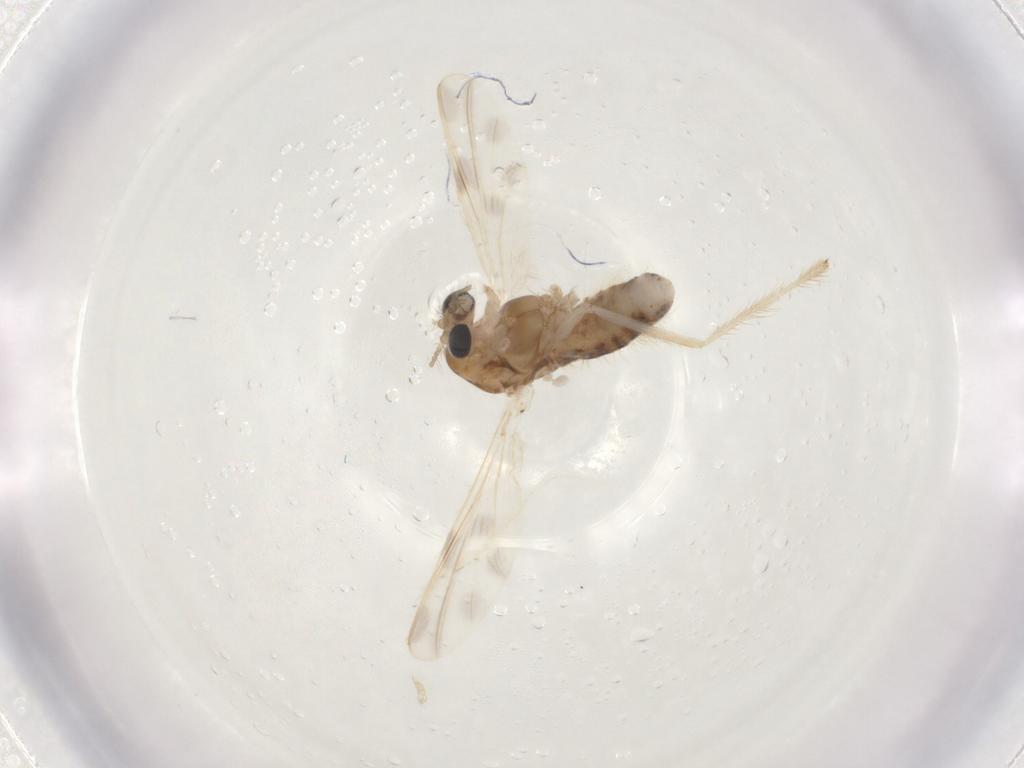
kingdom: Animalia
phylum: Arthropoda
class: Insecta
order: Diptera
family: Chironomidae
